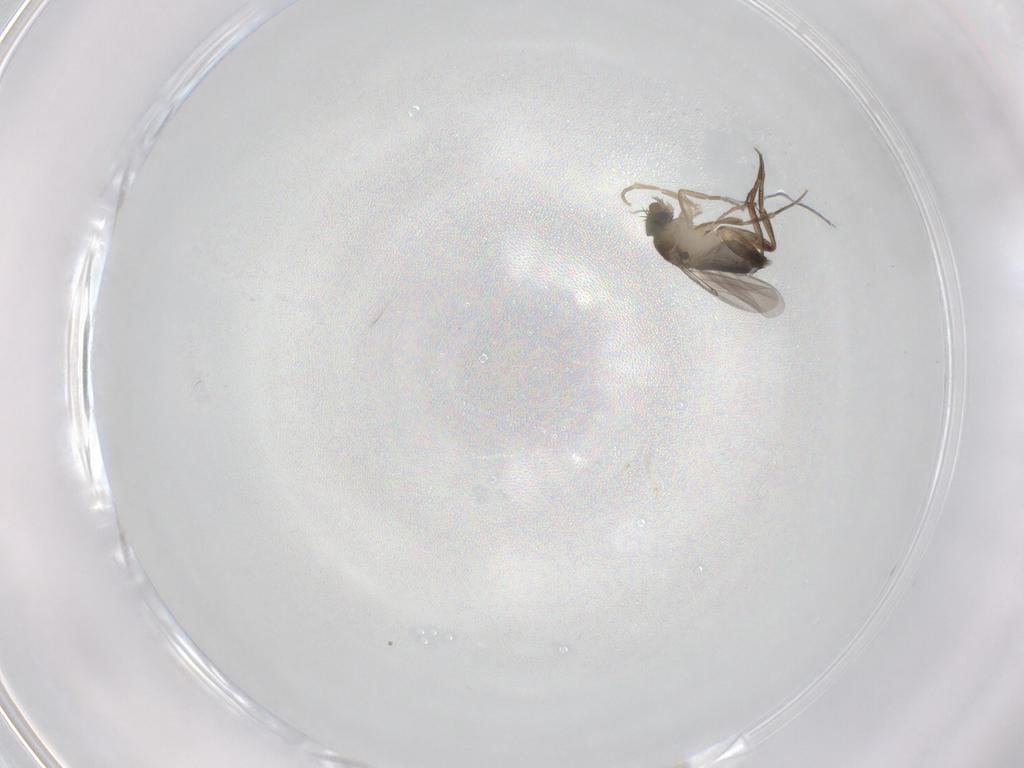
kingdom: Animalia
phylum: Arthropoda
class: Insecta
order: Diptera
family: Phoridae
